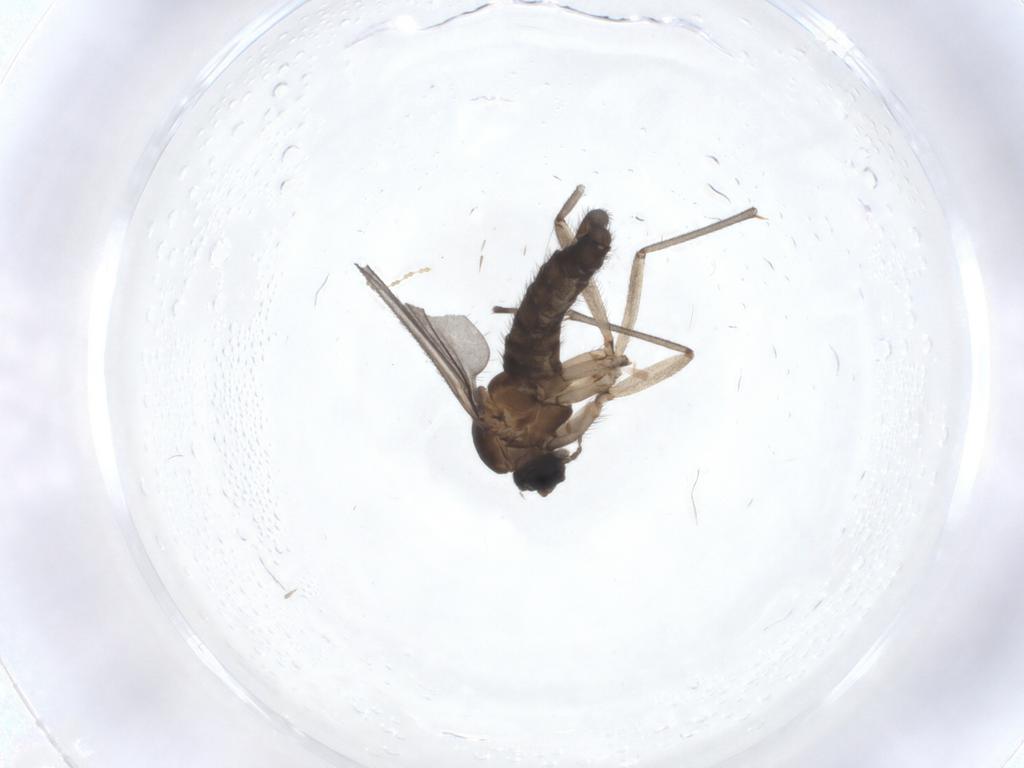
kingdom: Animalia
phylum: Arthropoda
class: Insecta
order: Diptera
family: Sciaridae
